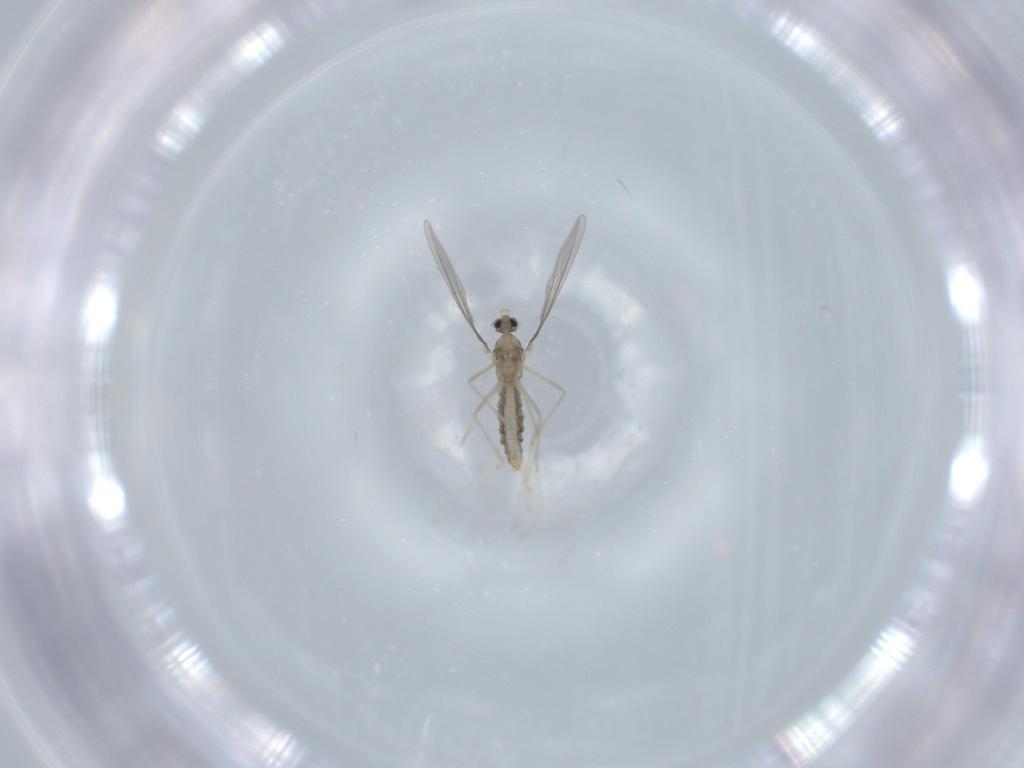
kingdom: Animalia
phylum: Arthropoda
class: Insecta
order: Diptera
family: Cecidomyiidae
